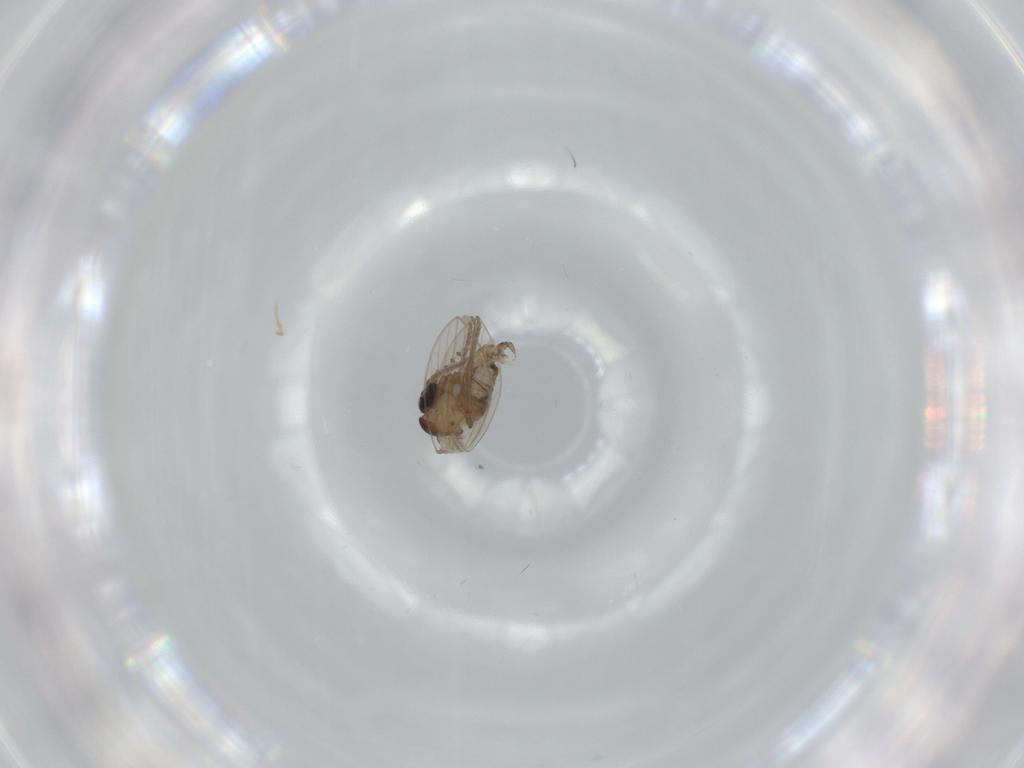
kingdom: Animalia
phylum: Arthropoda
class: Insecta
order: Diptera
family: Psychodidae
